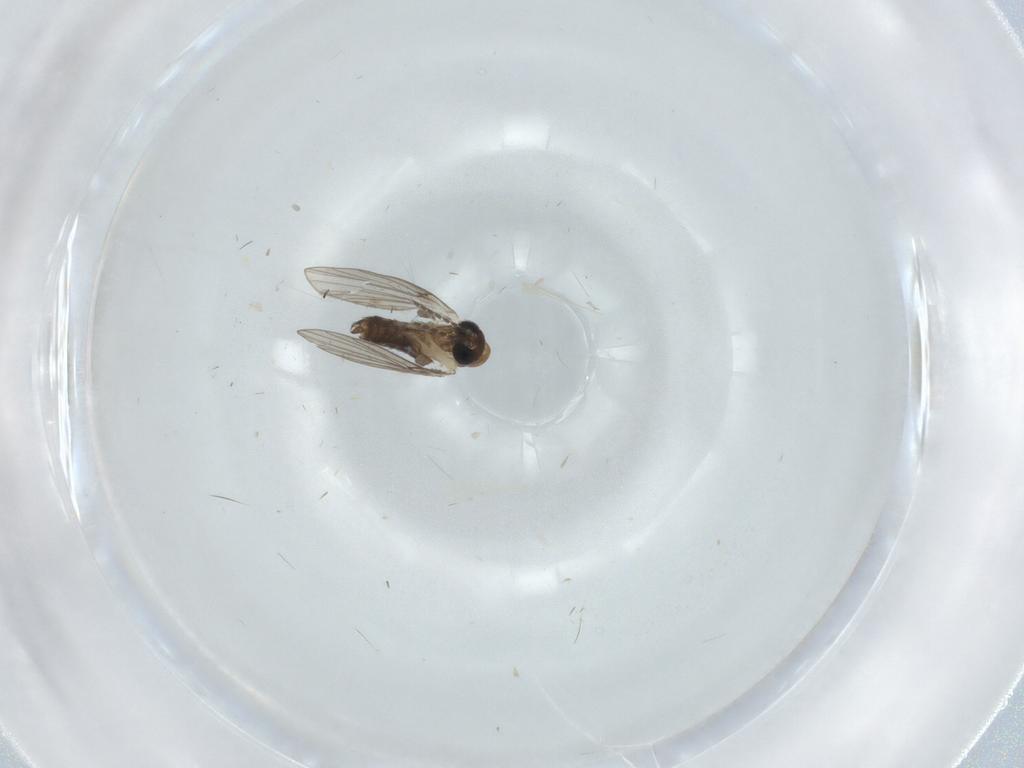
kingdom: Animalia
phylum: Arthropoda
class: Insecta
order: Diptera
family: Psychodidae
